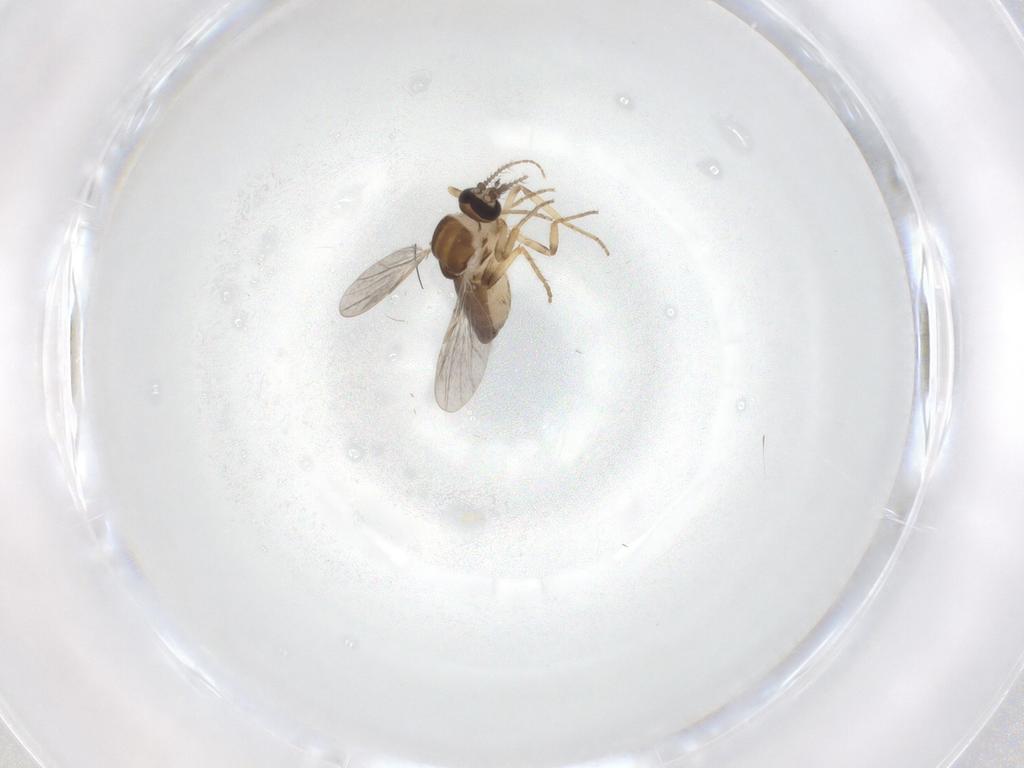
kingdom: Animalia
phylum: Arthropoda
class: Insecta
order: Diptera
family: Ceratopogonidae
